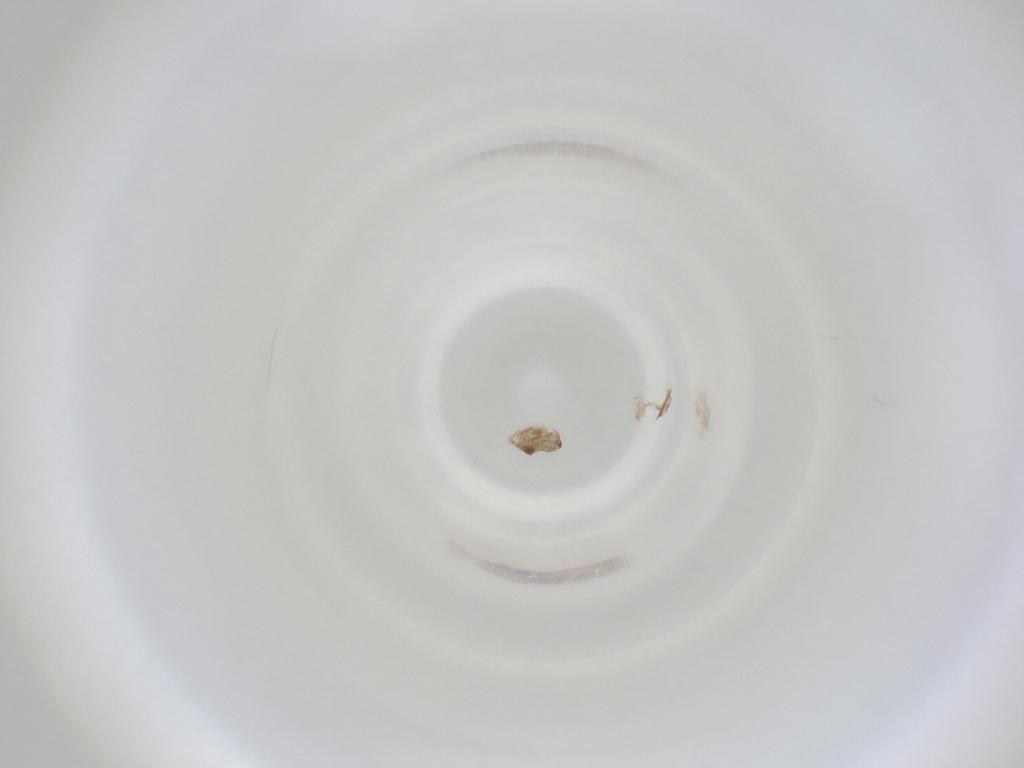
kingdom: Animalia
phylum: Arthropoda
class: Insecta
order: Diptera
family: Cecidomyiidae
